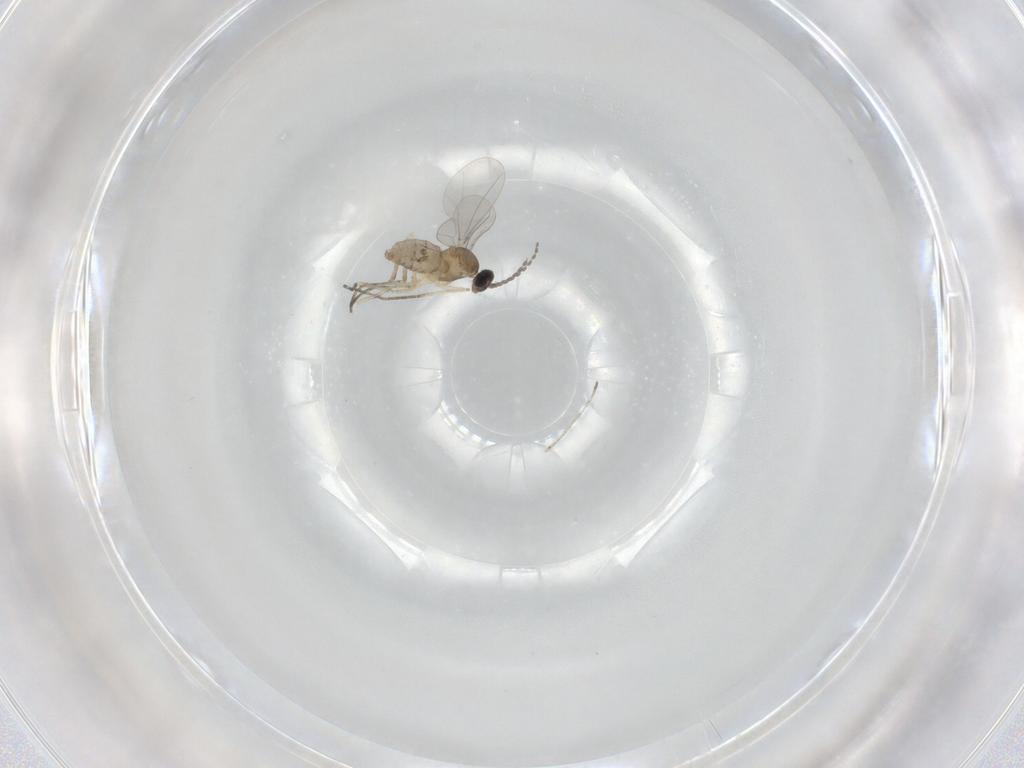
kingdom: Animalia
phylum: Arthropoda
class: Insecta
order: Diptera
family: Cecidomyiidae
